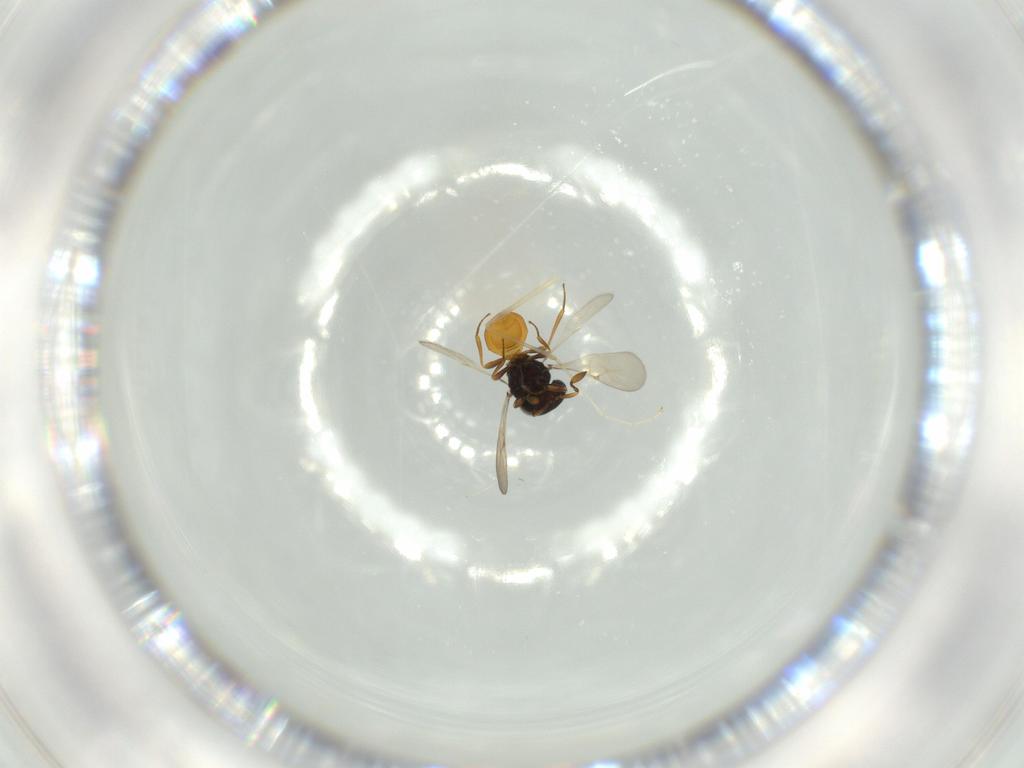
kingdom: Animalia
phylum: Arthropoda
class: Insecta
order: Hymenoptera
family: Scelionidae
